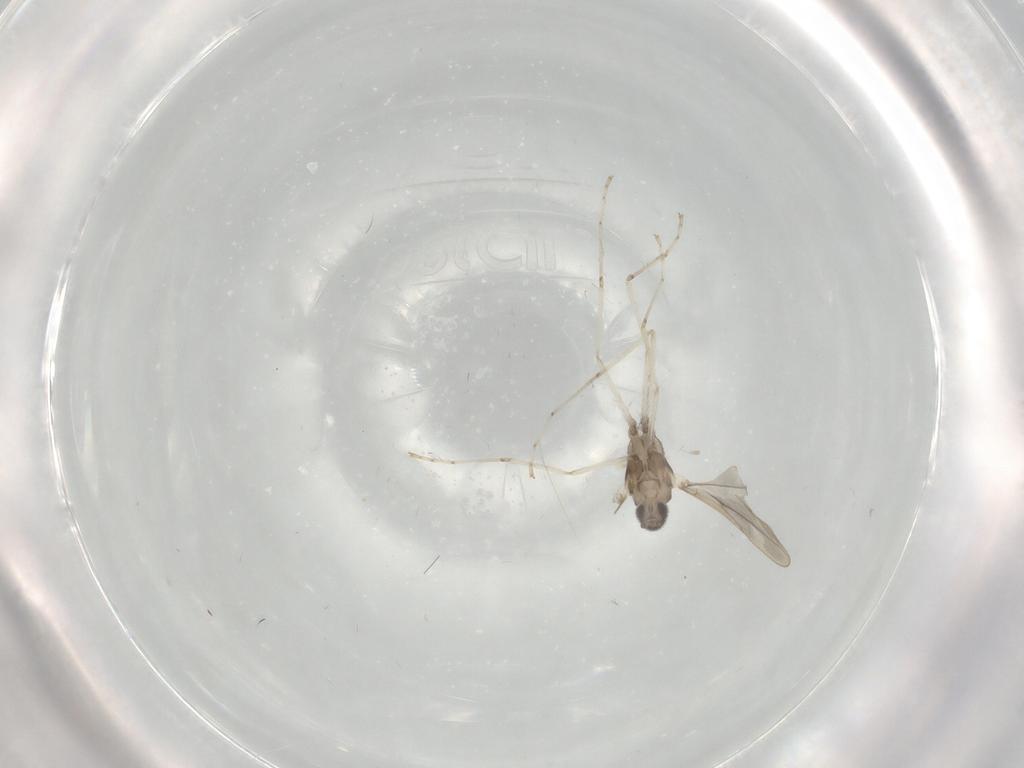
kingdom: Animalia
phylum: Arthropoda
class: Insecta
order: Diptera
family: Cecidomyiidae
